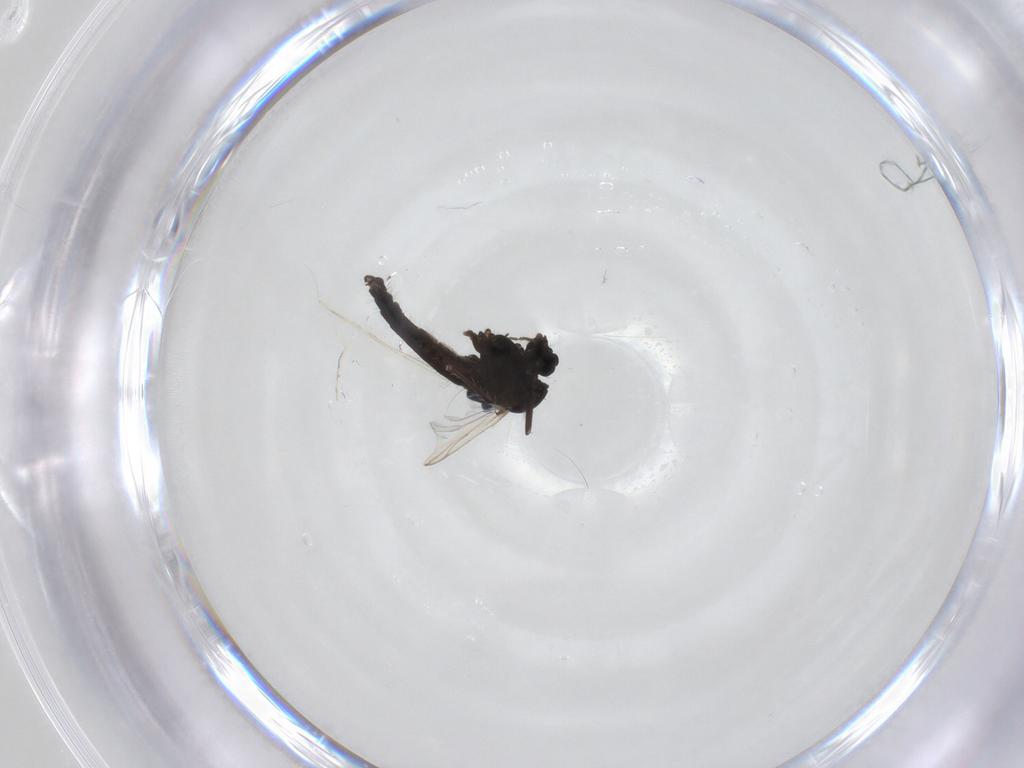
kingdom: Animalia
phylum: Arthropoda
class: Insecta
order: Diptera
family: Chironomidae
